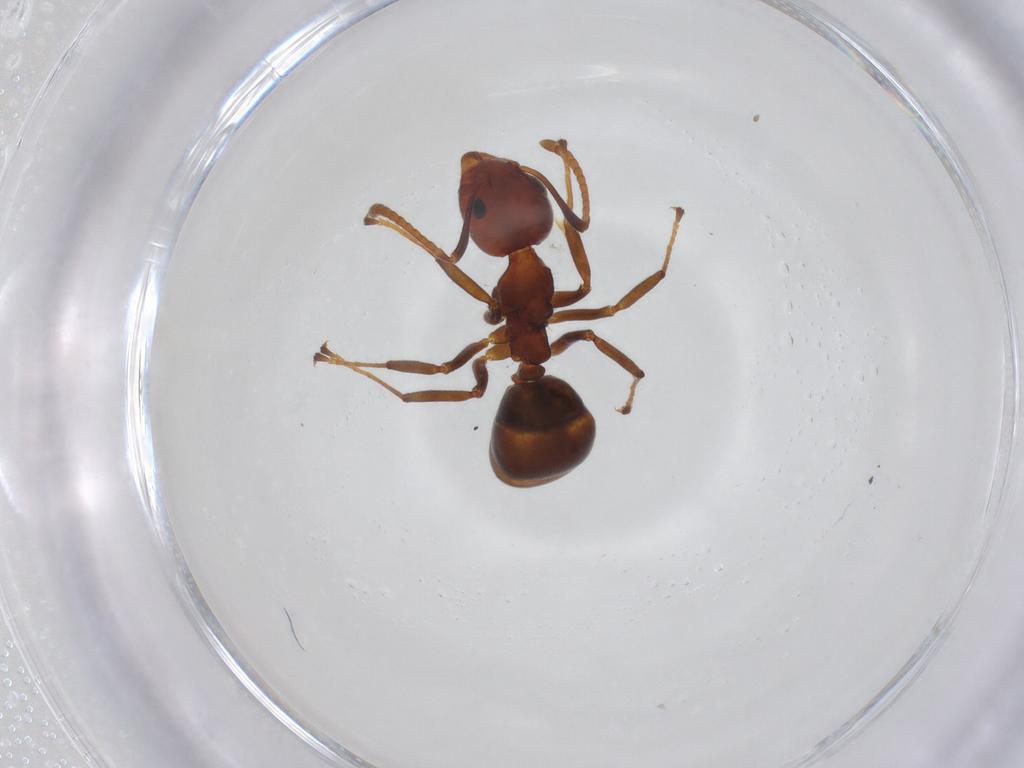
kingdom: Animalia
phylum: Arthropoda
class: Insecta
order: Hymenoptera
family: Formicidae
